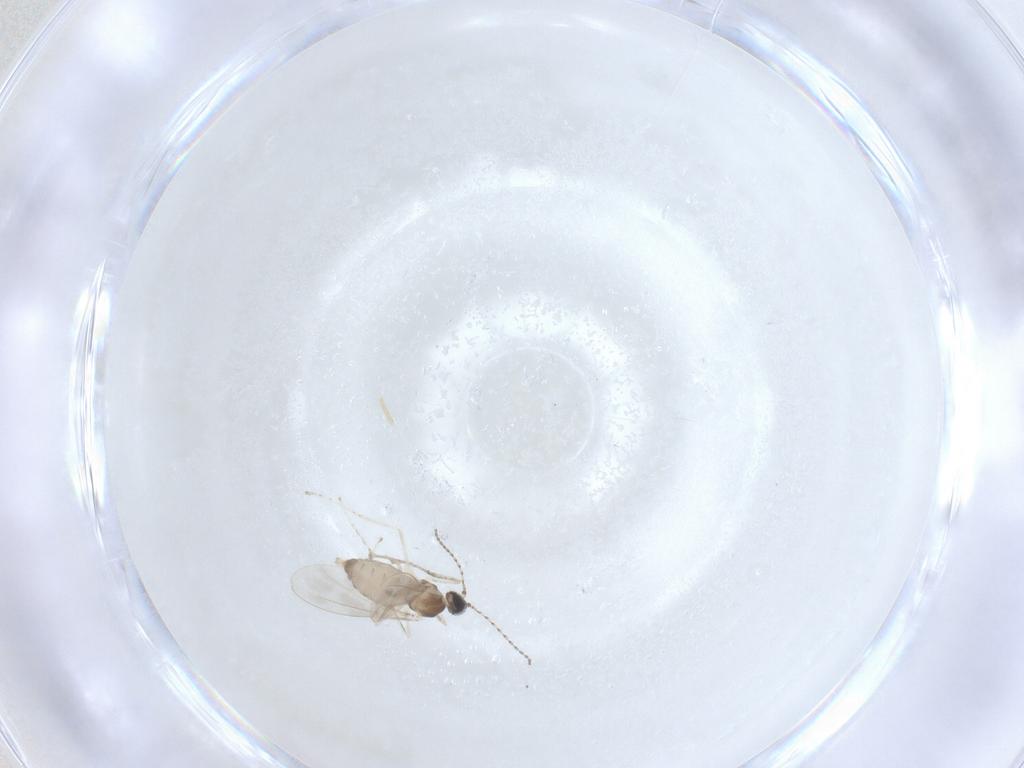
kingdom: Animalia
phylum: Arthropoda
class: Insecta
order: Diptera
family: Cecidomyiidae
